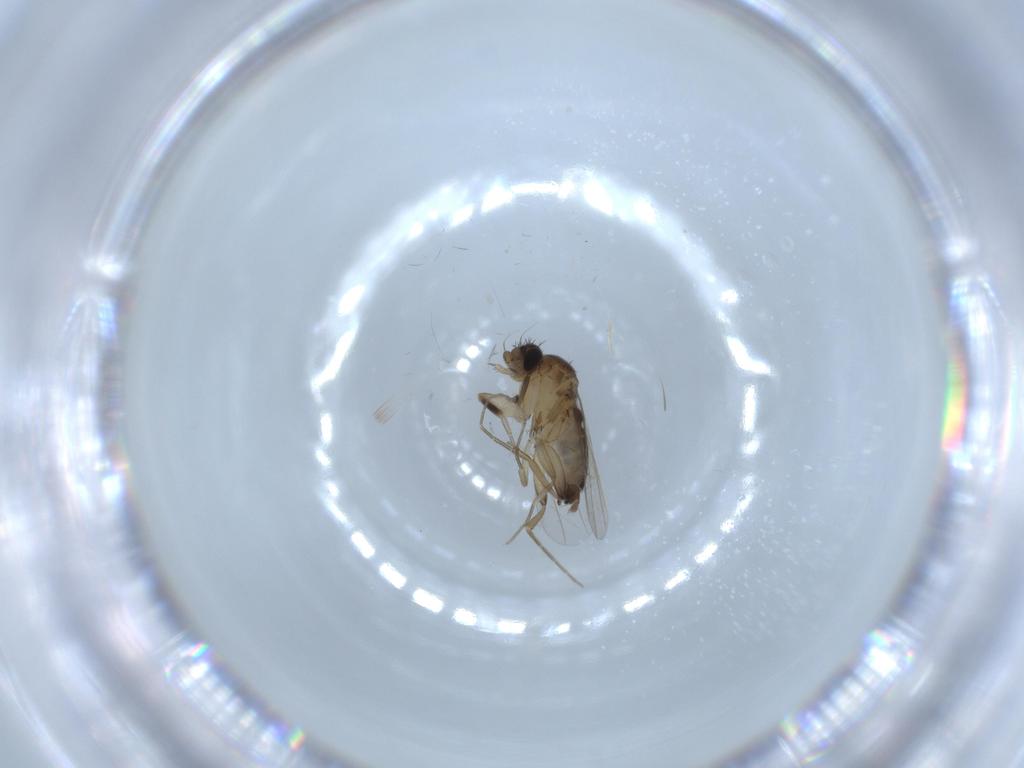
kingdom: Animalia
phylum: Arthropoda
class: Insecta
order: Diptera
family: Phoridae
